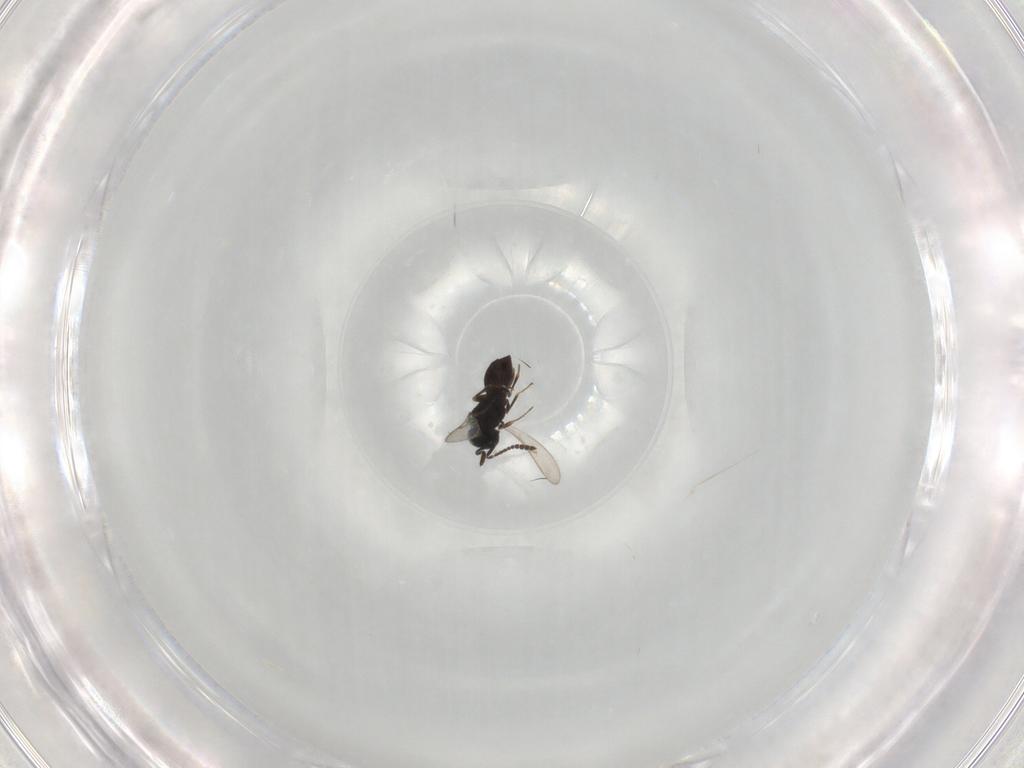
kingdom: Animalia
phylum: Arthropoda
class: Insecta
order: Hymenoptera
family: Scelionidae
